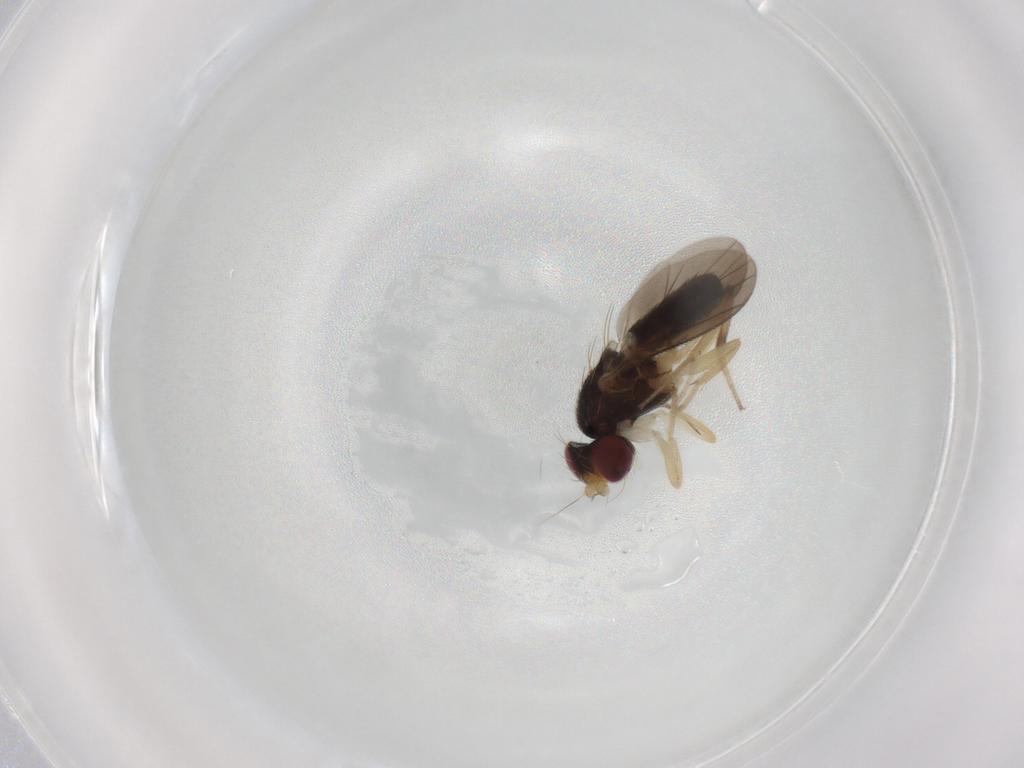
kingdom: Animalia
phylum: Arthropoda
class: Insecta
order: Diptera
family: Clusiidae
